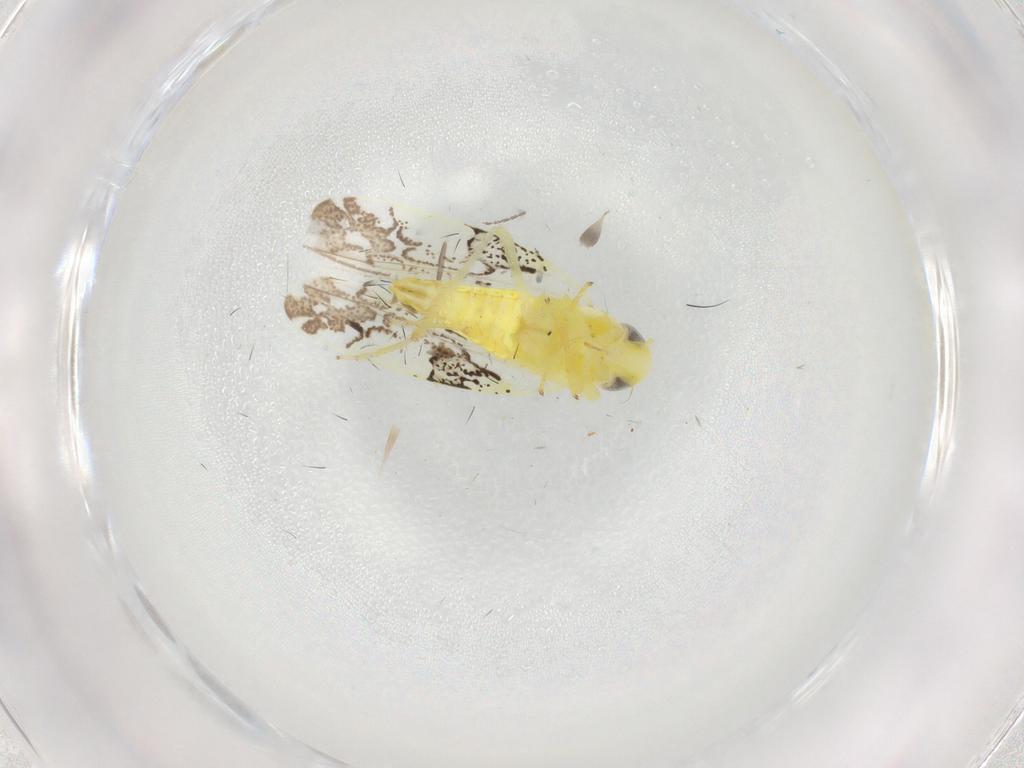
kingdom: Animalia
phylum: Arthropoda
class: Insecta
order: Hemiptera
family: Cicadellidae
